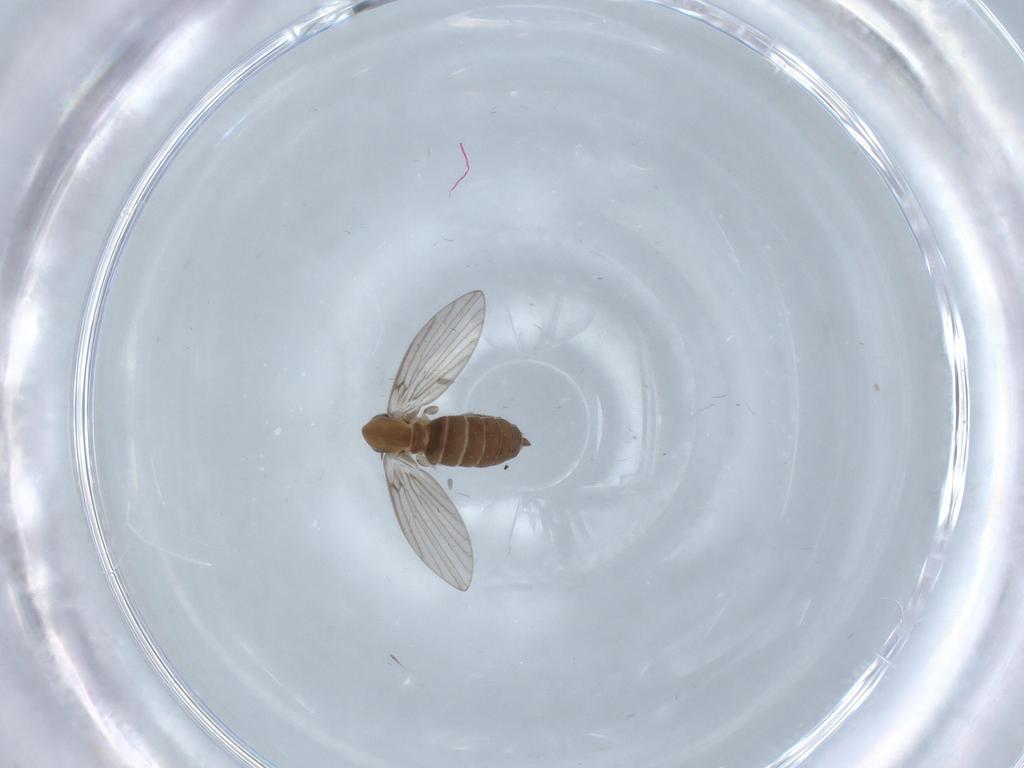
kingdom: Animalia
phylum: Arthropoda
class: Insecta
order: Diptera
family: Psychodidae
